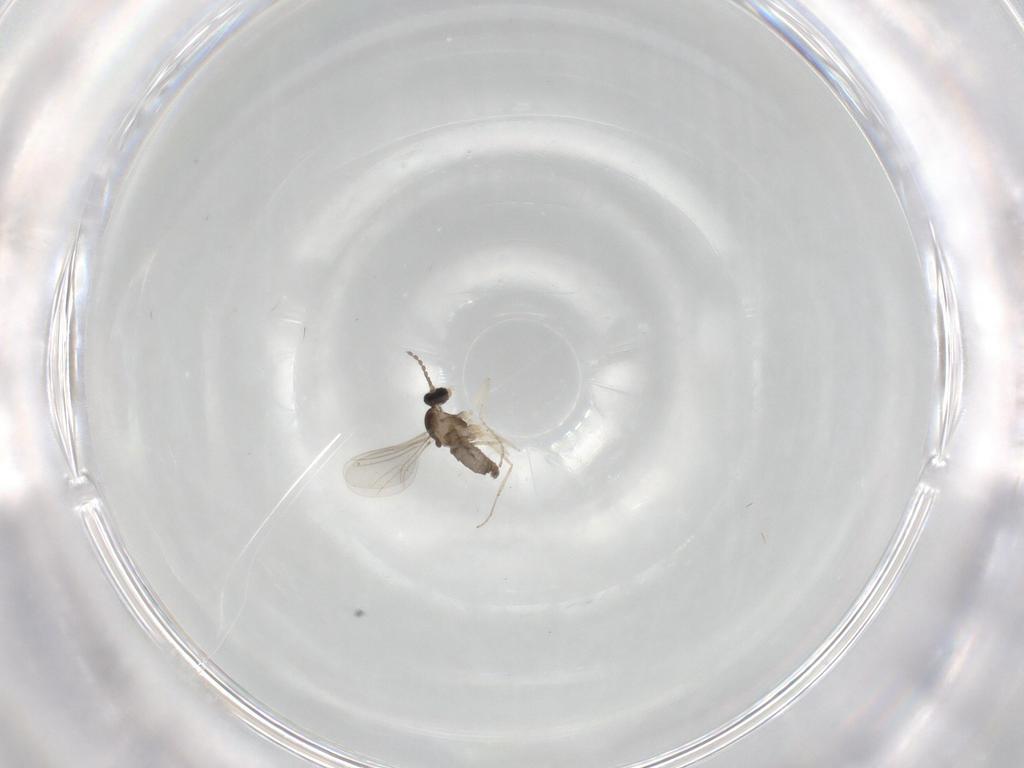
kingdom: Animalia
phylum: Arthropoda
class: Insecta
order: Diptera
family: Cecidomyiidae
